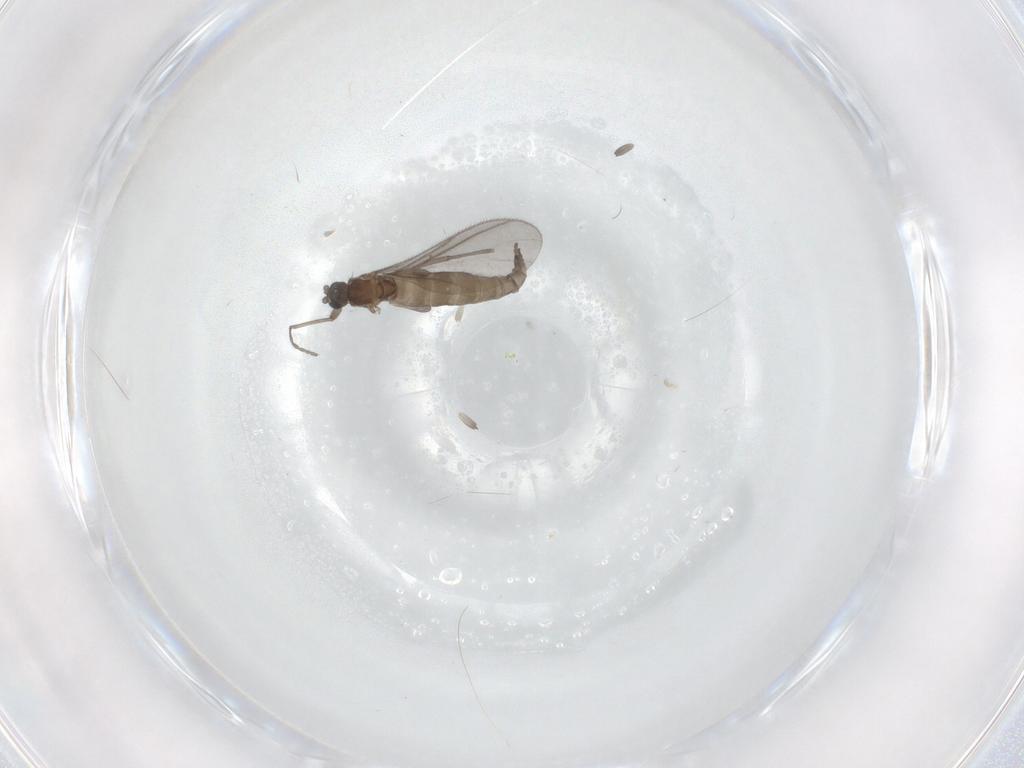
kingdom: Animalia
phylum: Arthropoda
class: Insecta
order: Diptera
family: Sciaridae
